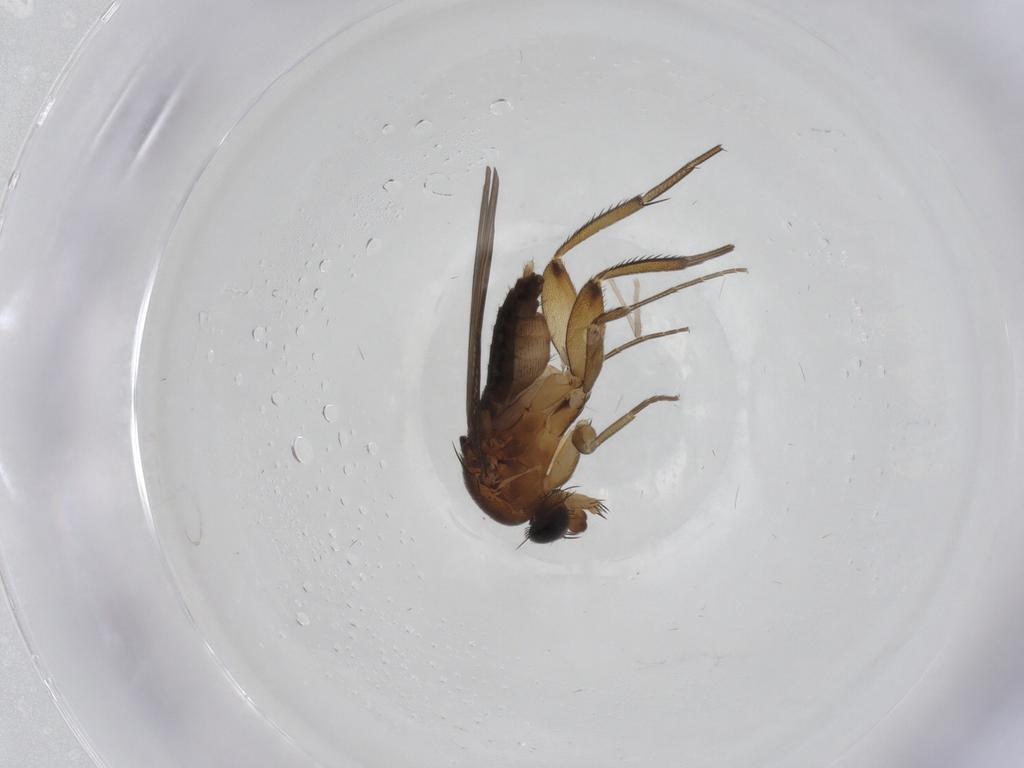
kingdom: Animalia
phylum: Arthropoda
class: Insecta
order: Diptera
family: Phoridae
